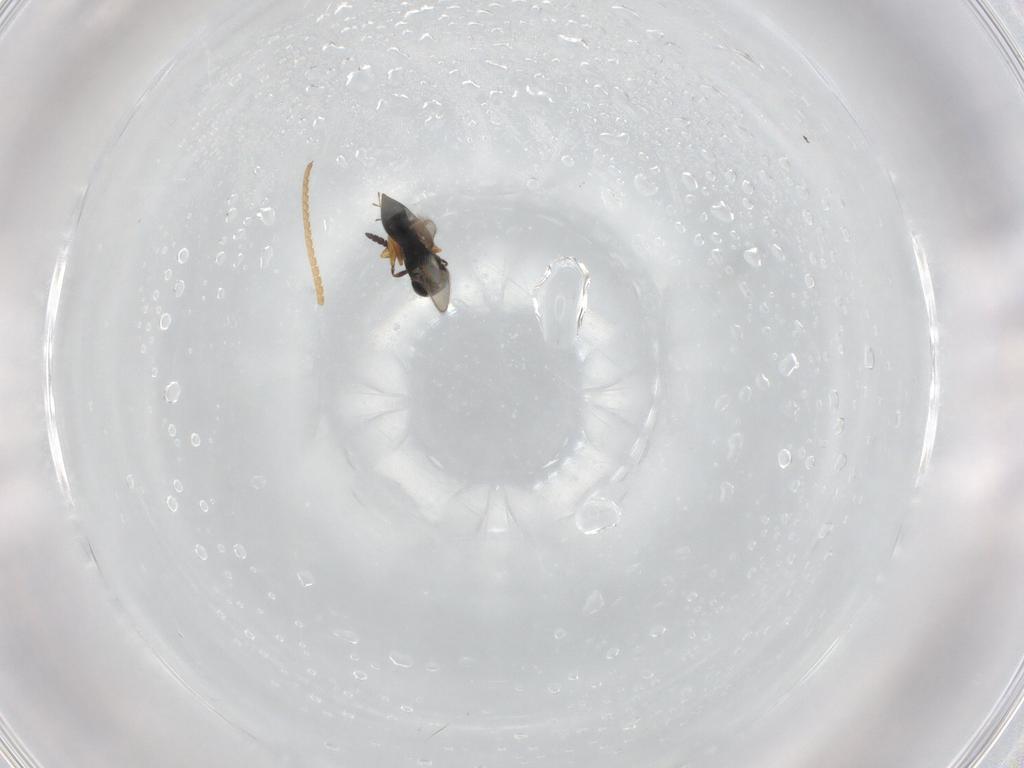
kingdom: Animalia
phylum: Arthropoda
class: Insecta
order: Hymenoptera
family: Scelionidae
